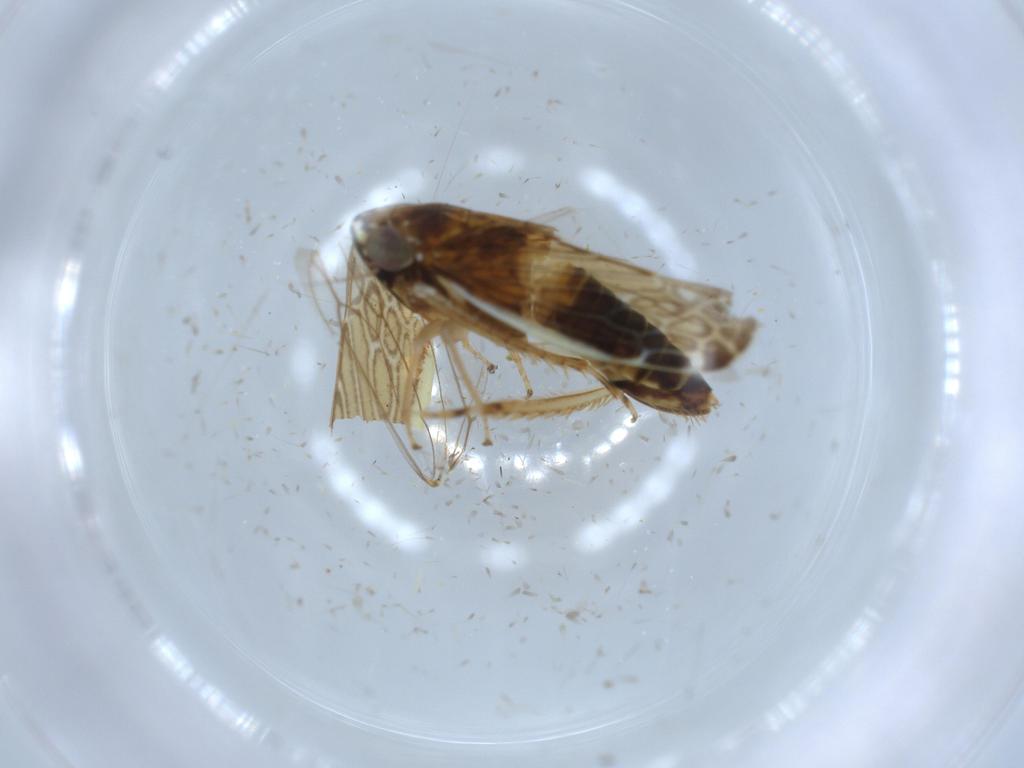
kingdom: Animalia
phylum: Arthropoda
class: Insecta
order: Hemiptera
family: Cicadellidae
